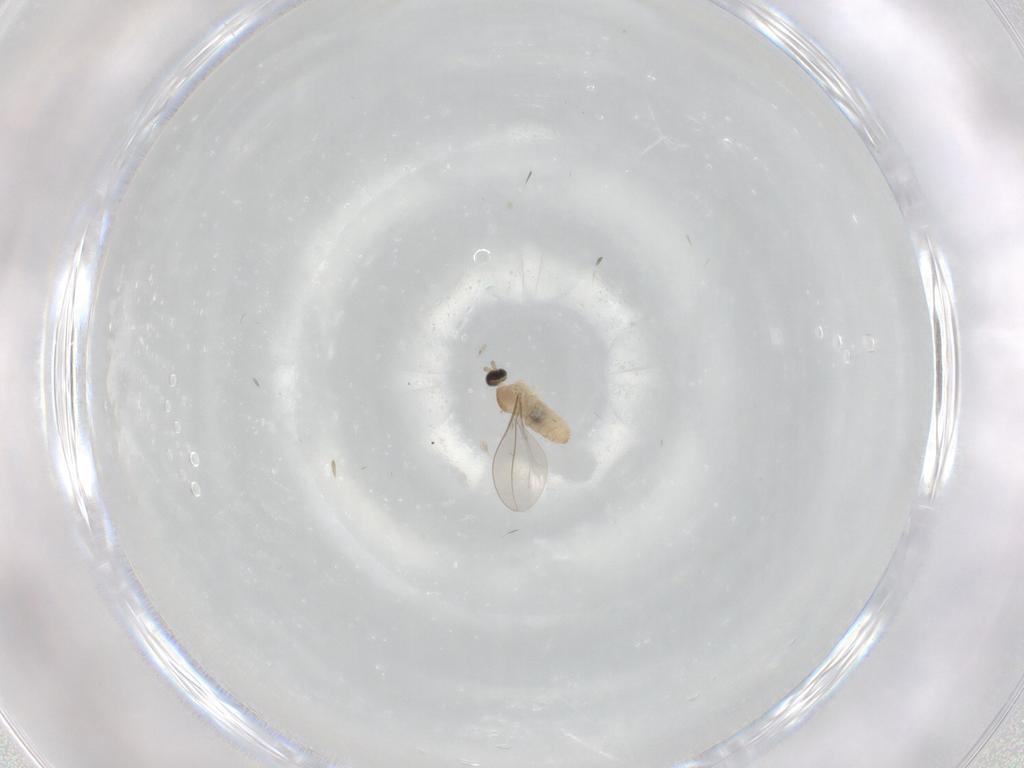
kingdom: Animalia
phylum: Arthropoda
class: Insecta
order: Diptera
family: Cecidomyiidae
